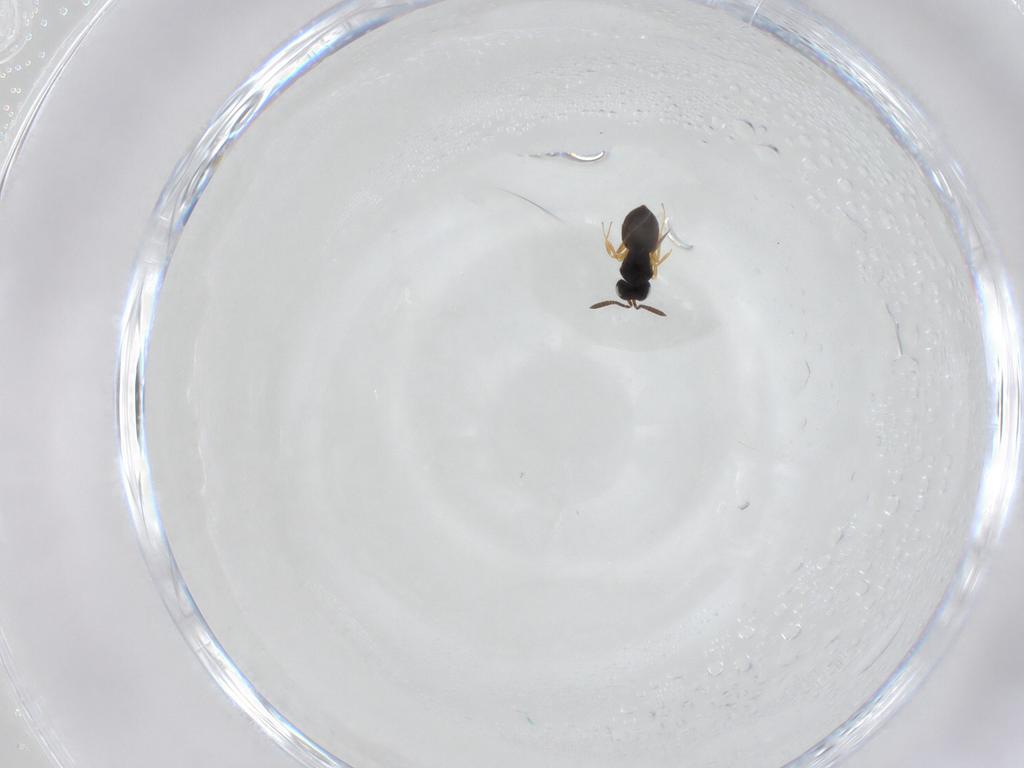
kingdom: Animalia
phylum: Arthropoda
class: Insecta
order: Hymenoptera
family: Scelionidae
